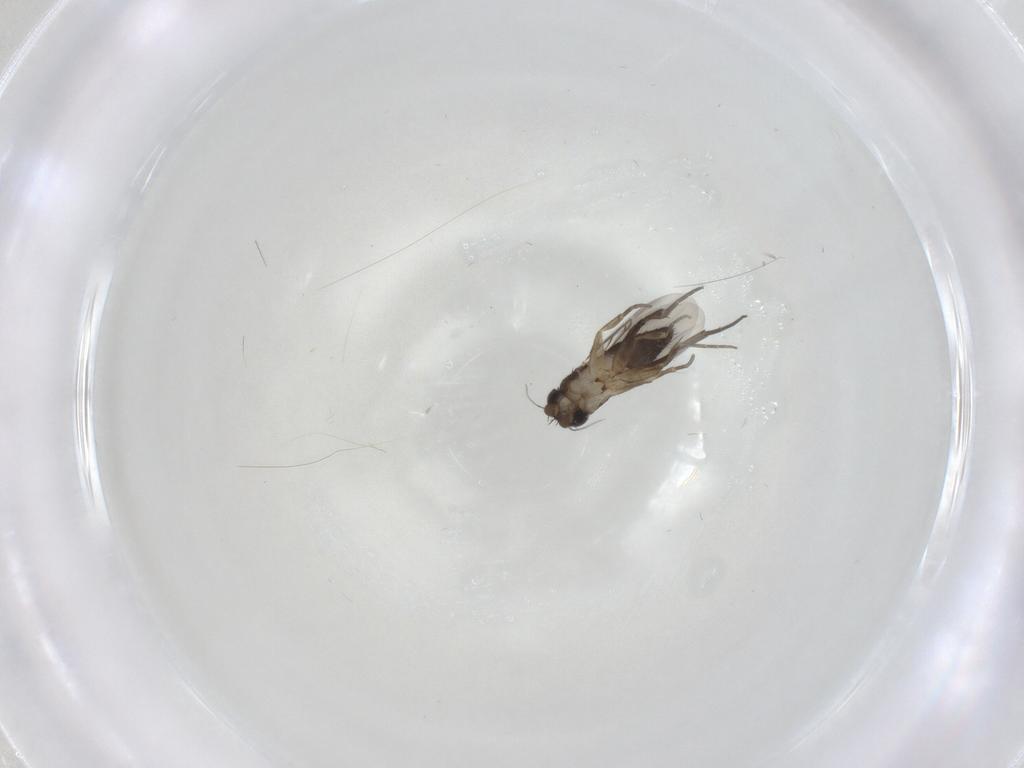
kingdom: Animalia
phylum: Arthropoda
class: Insecta
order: Diptera
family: Phoridae
